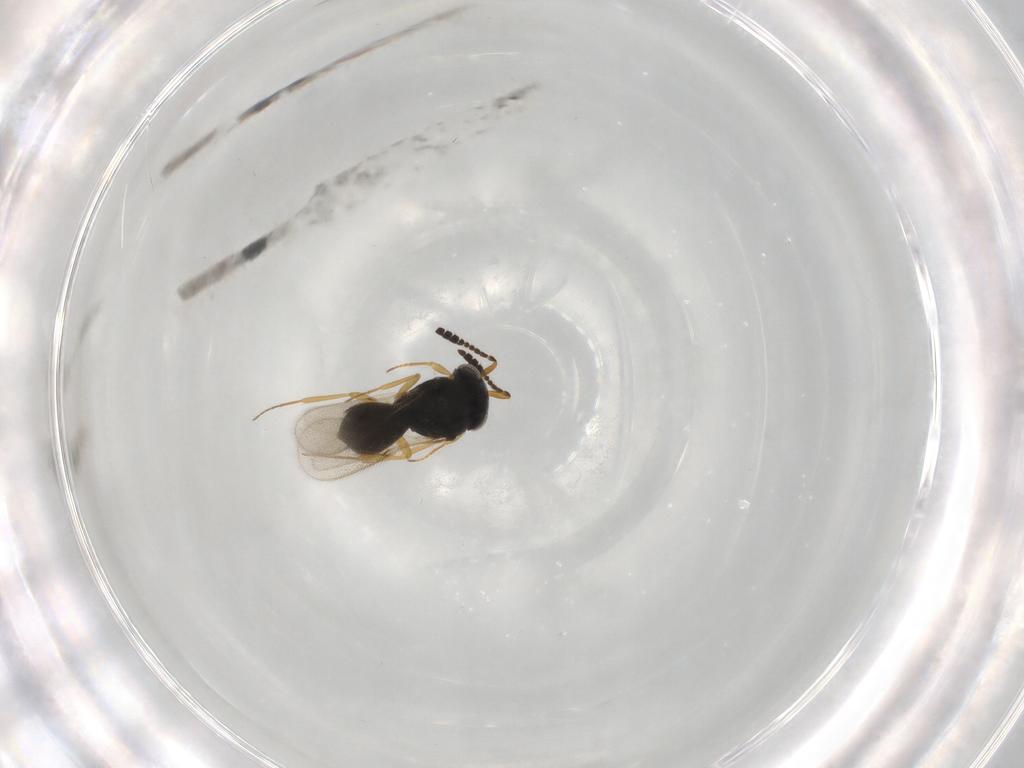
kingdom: Animalia
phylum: Arthropoda
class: Insecta
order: Hymenoptera
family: Scelionidae
